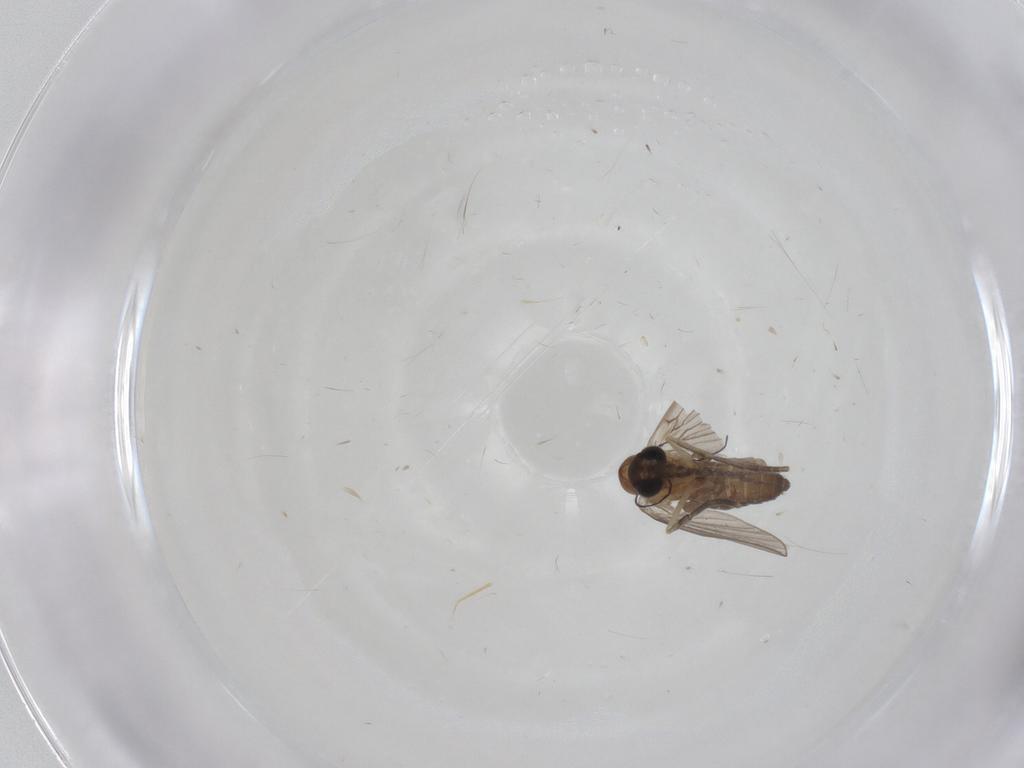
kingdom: Animalia
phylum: Arthropoda
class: Insecta
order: Diptera
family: Cecidomyiidae
